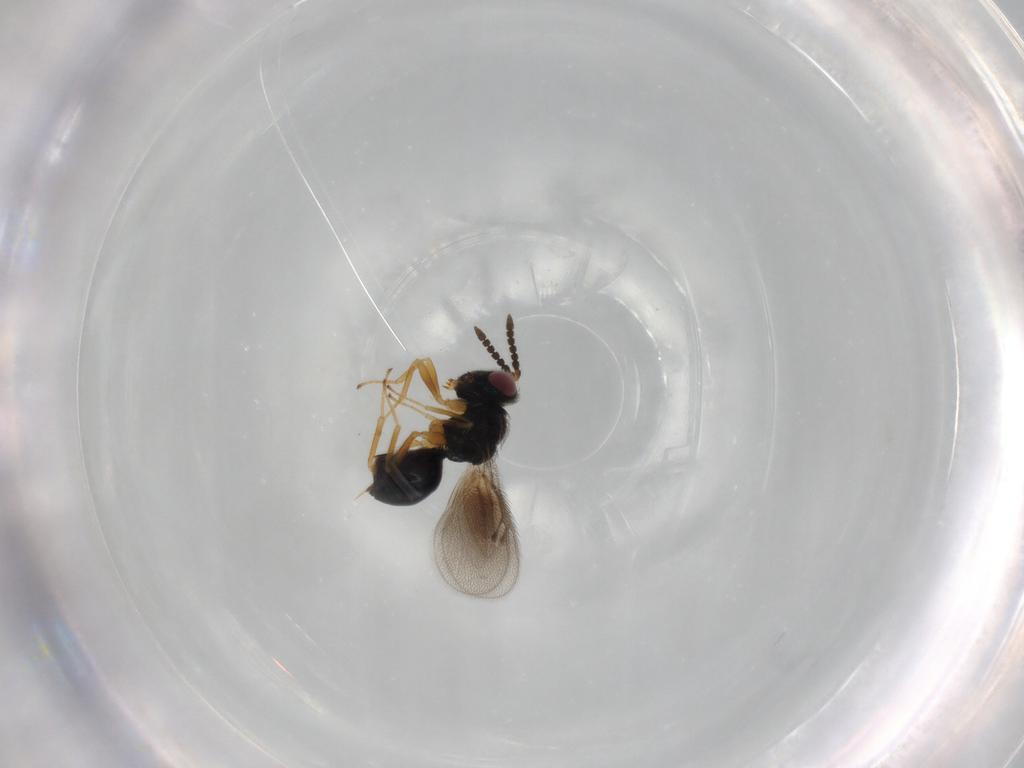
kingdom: Animalia
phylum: Arthropoda
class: Insecta
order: Hymenoptera
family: Pteromalidae
